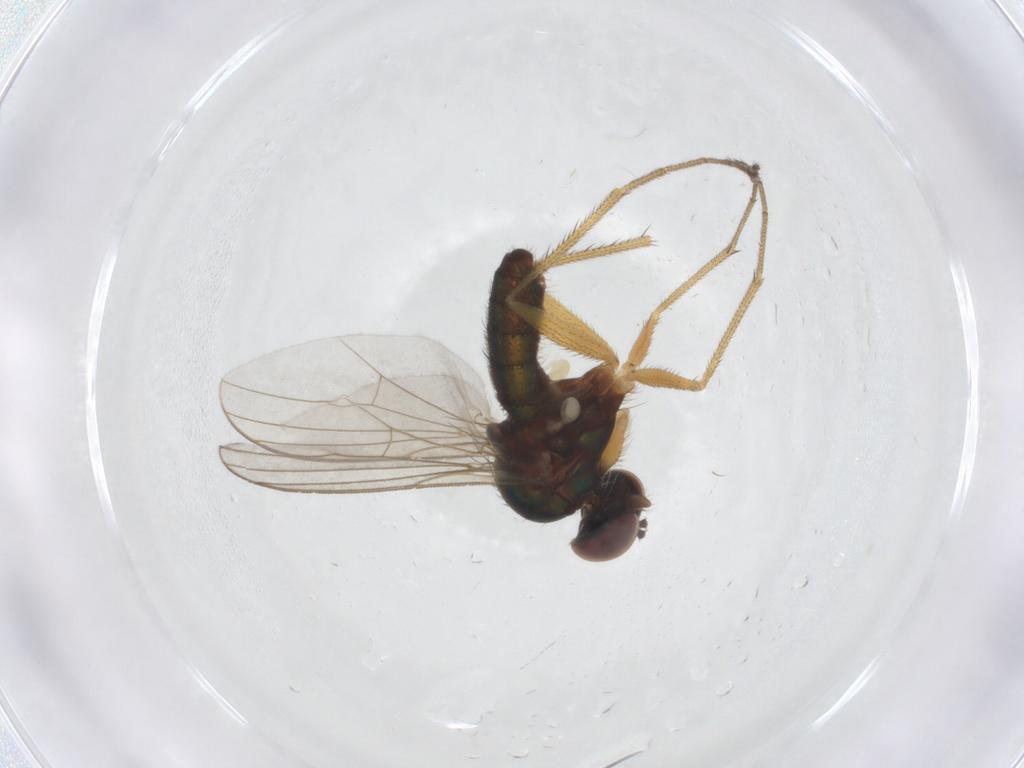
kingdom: Animalia
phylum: Arthropoda
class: Insecta
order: Diptera
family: Dolichopodidae
